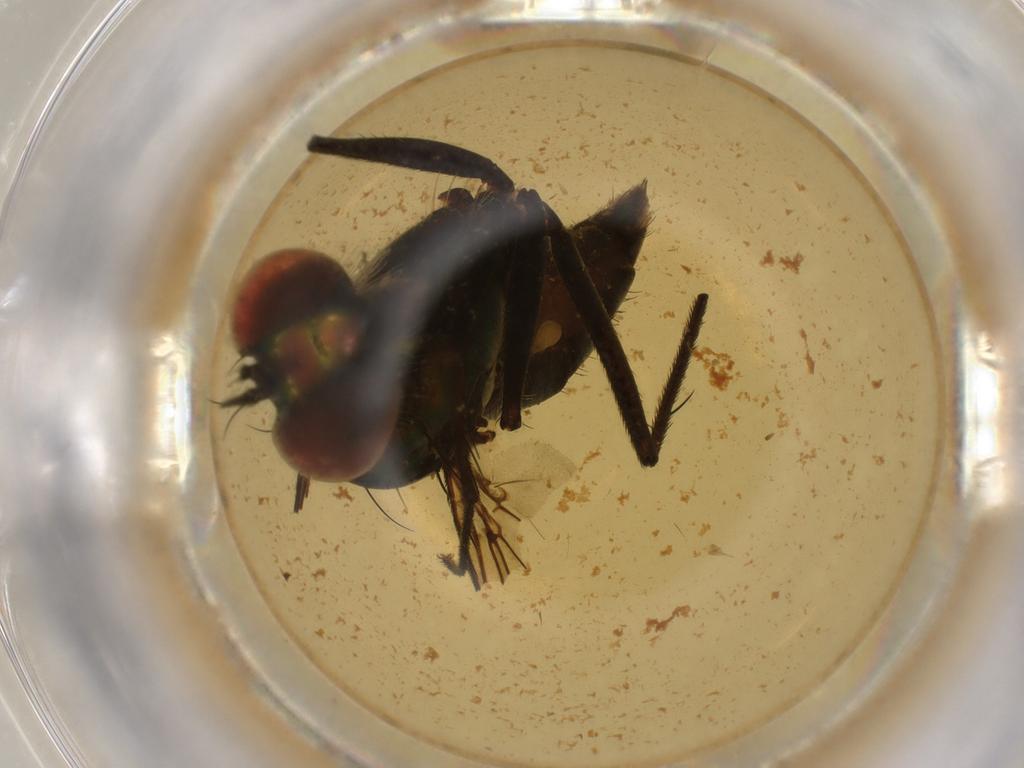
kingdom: Animalia
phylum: Arthropoda
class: Insecta
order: Diptera
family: Dolichopodidae
